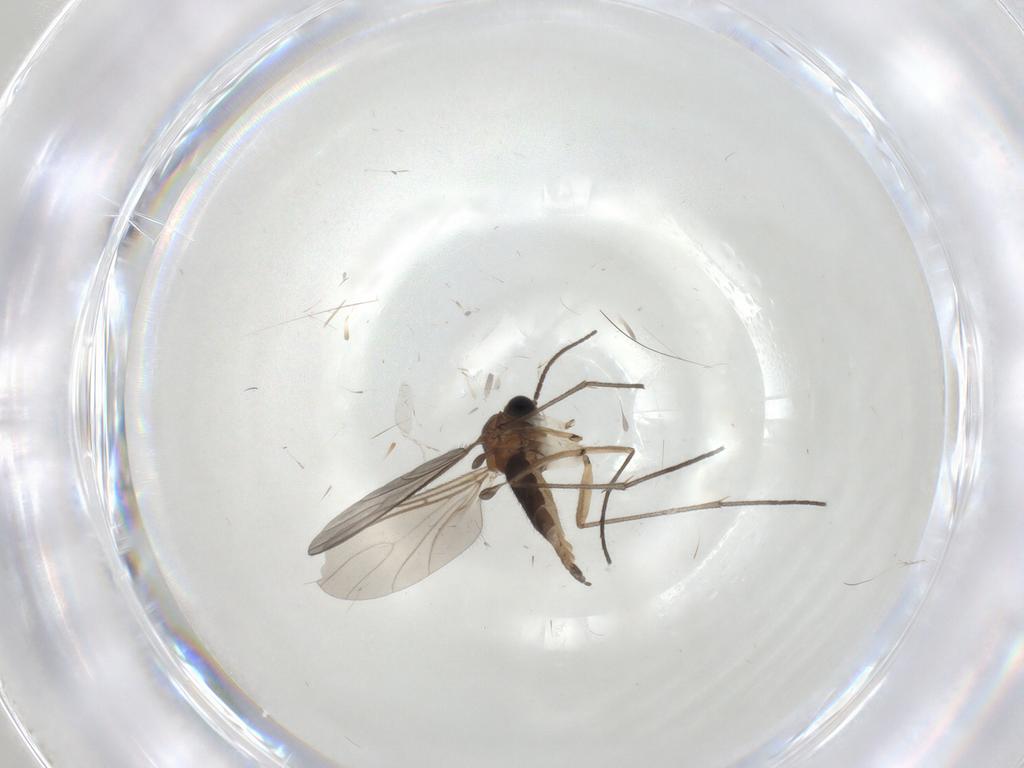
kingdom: Animalia
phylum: Arthropoda
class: Insecta
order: Diptera
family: Sciaridae
